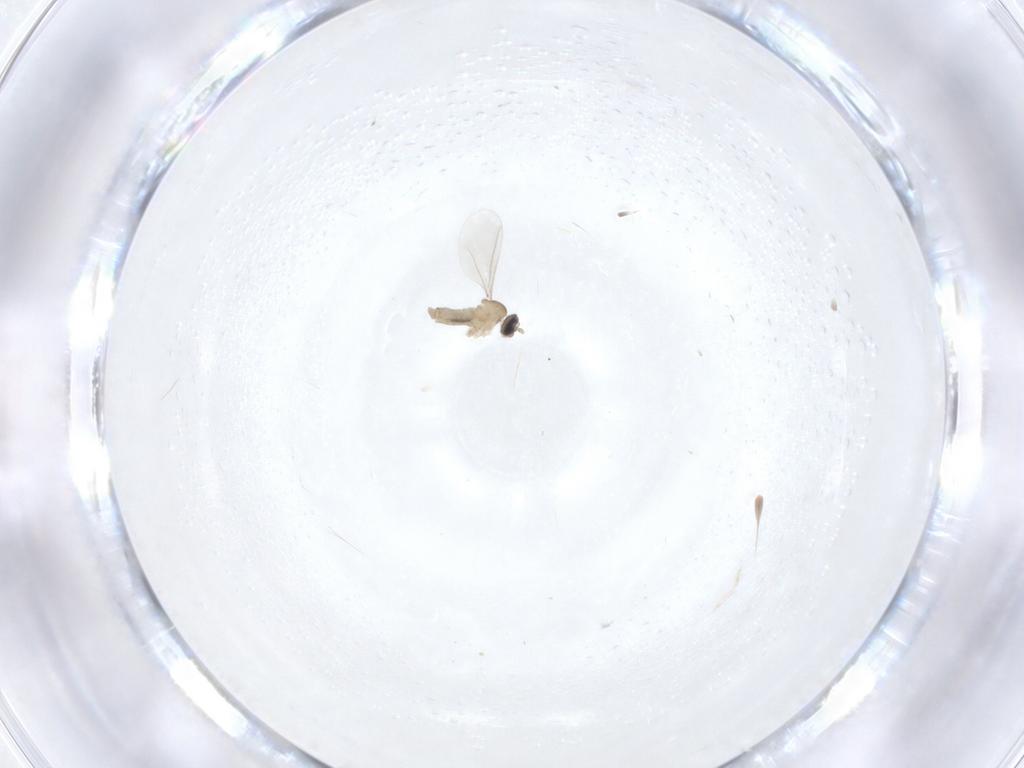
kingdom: Animalia
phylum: Arthropoda
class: Insecta
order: Diptera
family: Cecidomyiidae
